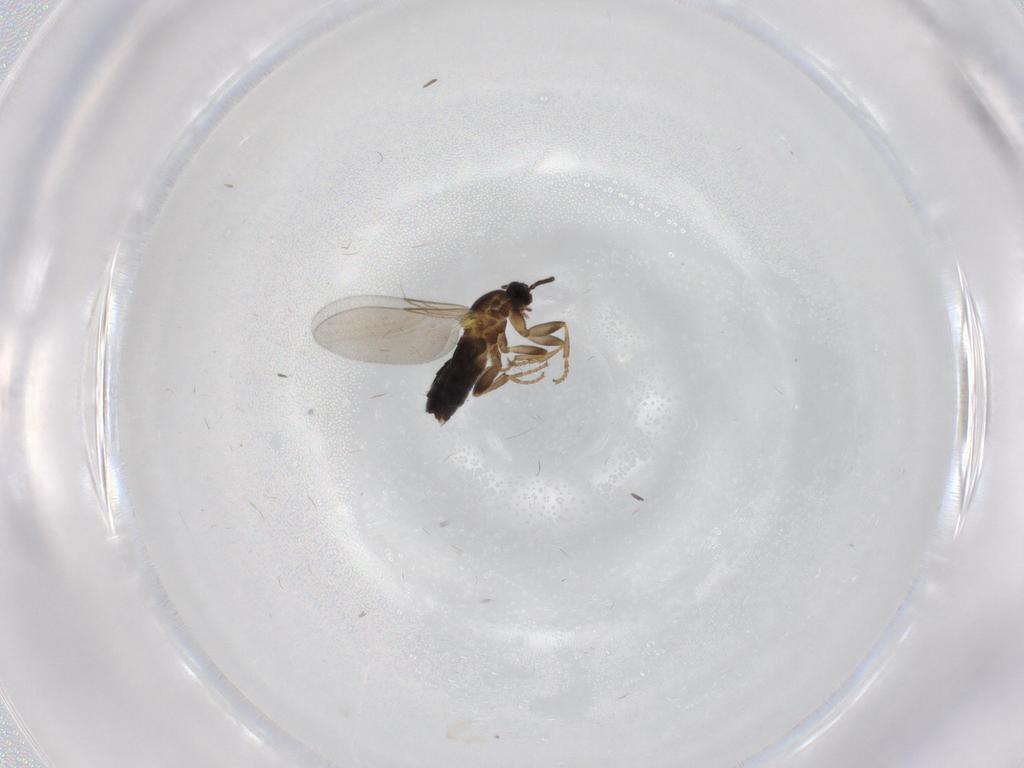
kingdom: Animalia
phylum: Arthropoda
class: Insecta
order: Diptera
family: Scatopsidae
